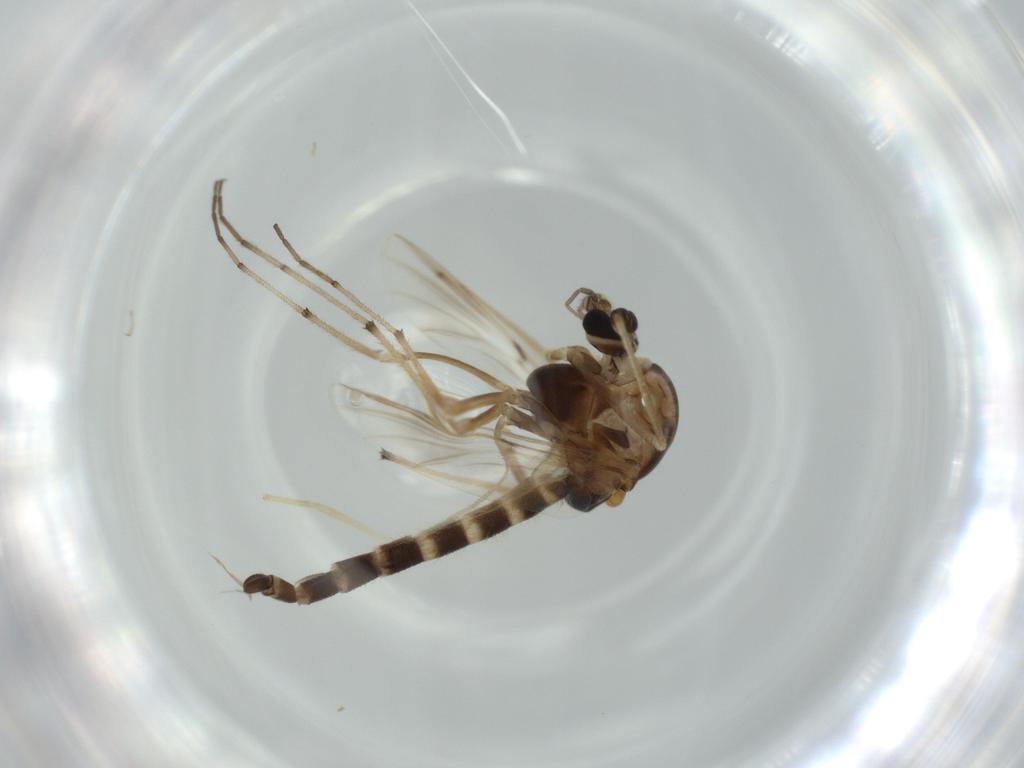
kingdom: Animalia
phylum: Arthropoda
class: Insecta
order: Diptera
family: Chironomidae
